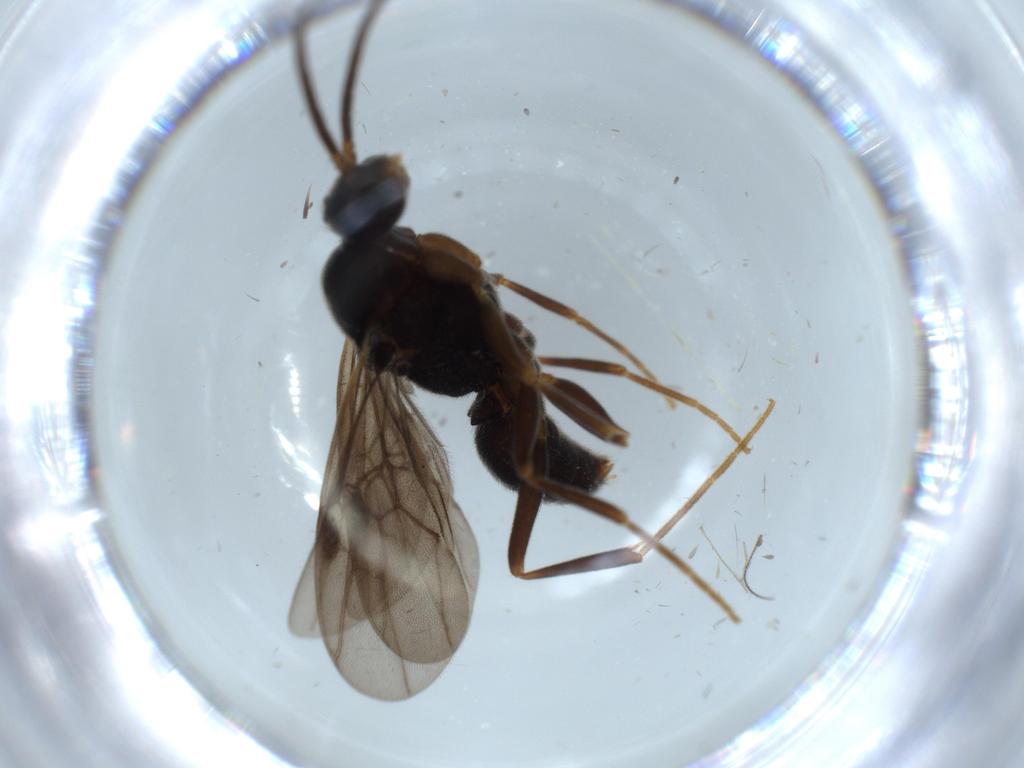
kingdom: Animalia
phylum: Arthropoda
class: Insecta
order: Hymenoptera
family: Formicidae
